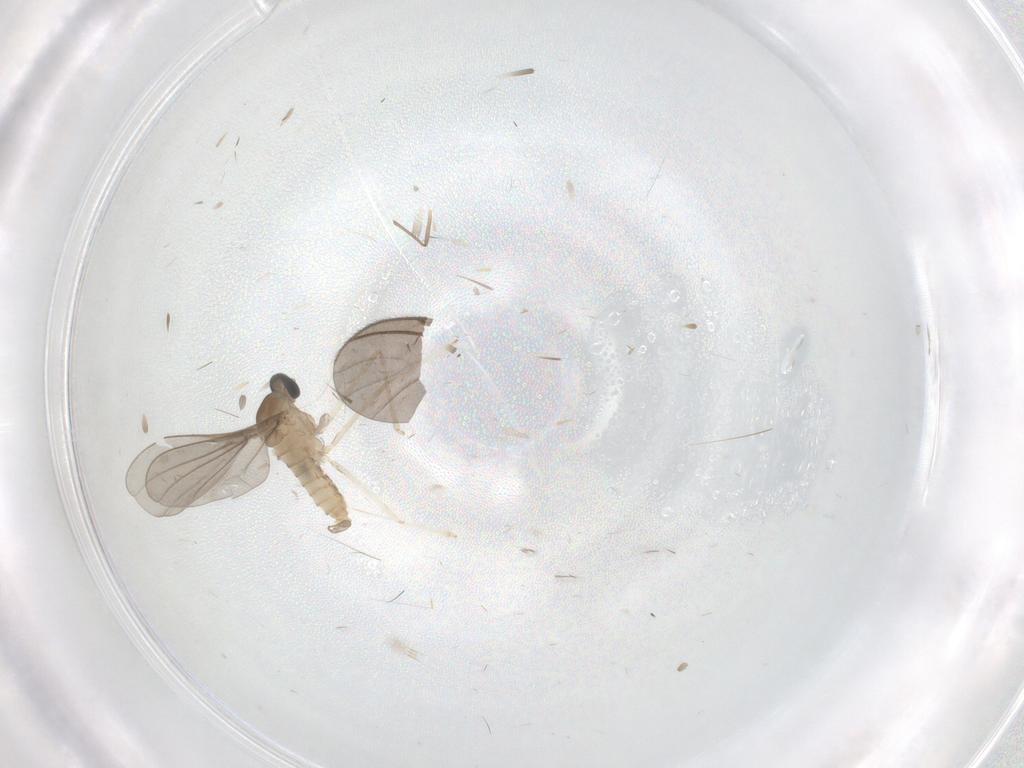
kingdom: Animalia
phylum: Arthropoda
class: Insecta
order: Diptera
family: Cecidomyiidae
